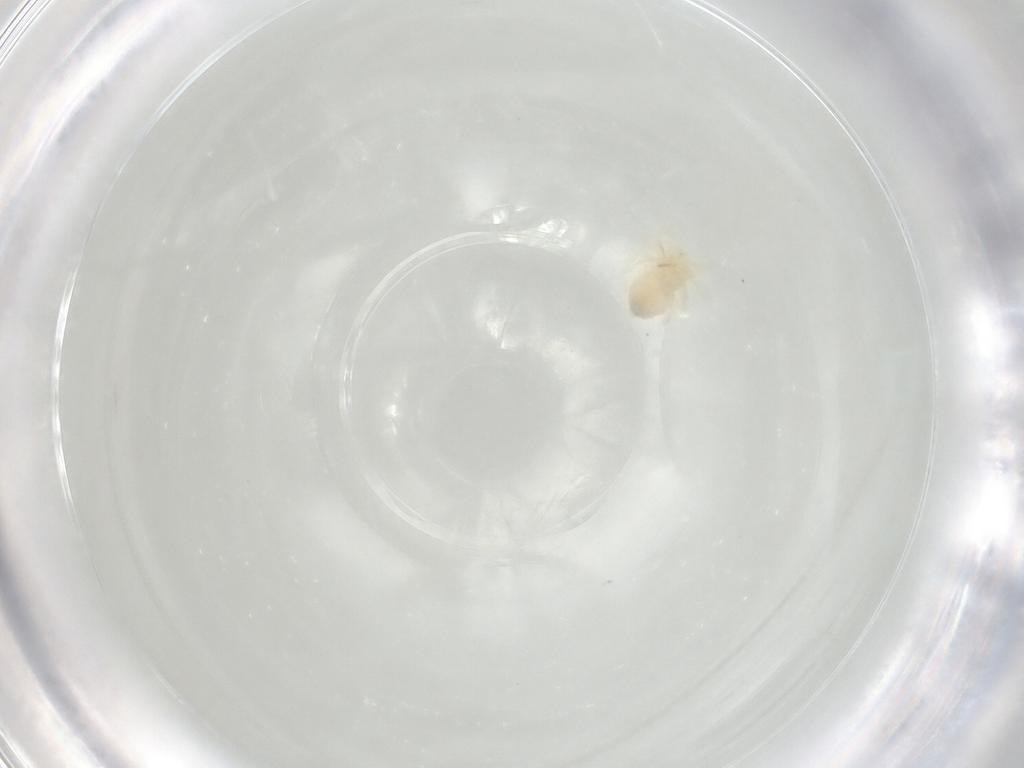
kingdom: Animalia
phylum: Arthropoda
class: Arachnida
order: Trombidiformes
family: Anystidae
